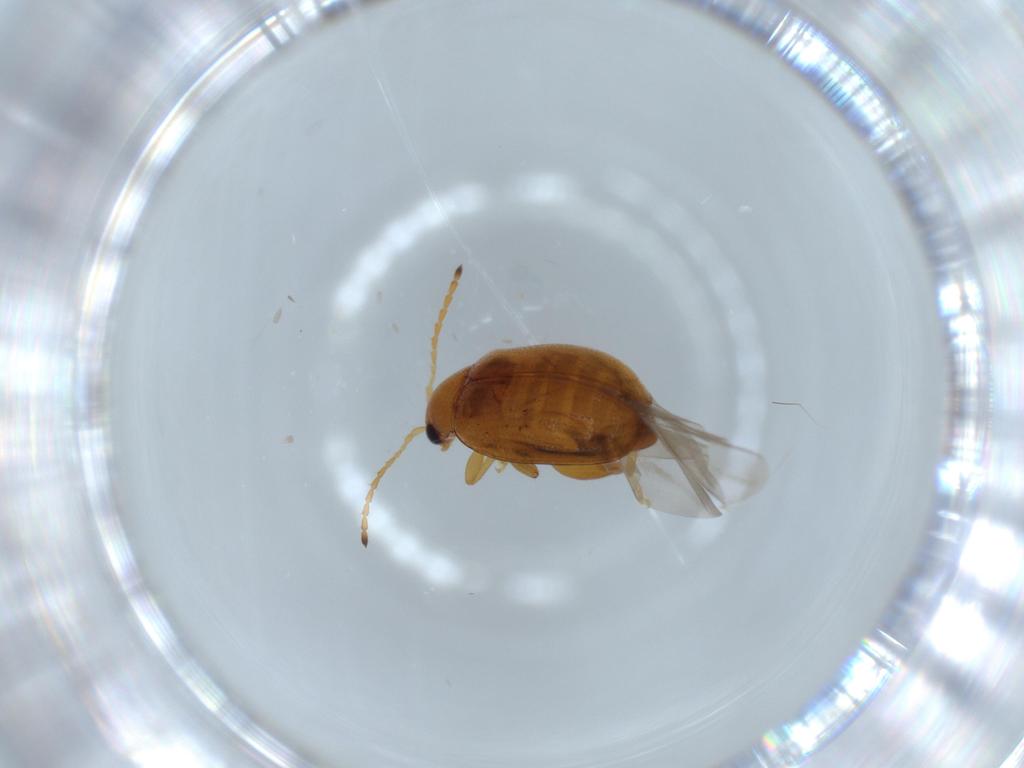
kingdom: Animalia
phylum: Arthropoda
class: Insecta
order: Coleoptera
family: Chrysomelidae
